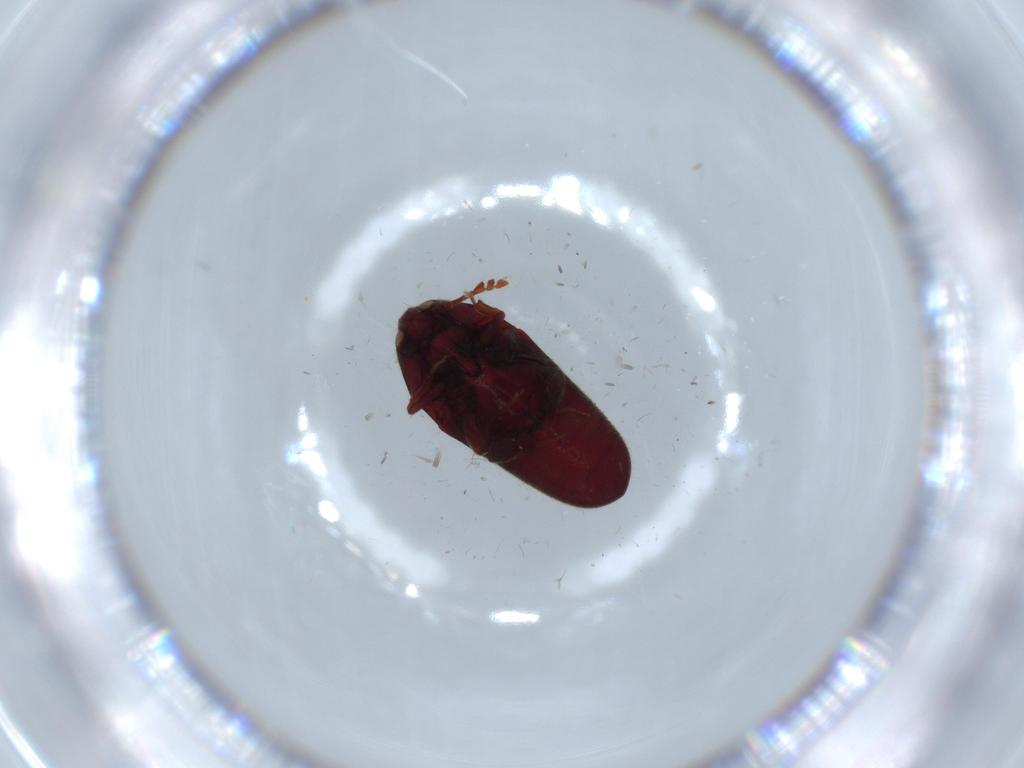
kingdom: Animalia
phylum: Arthropoda
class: Insecta
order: Coleoptera
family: Throscidae
